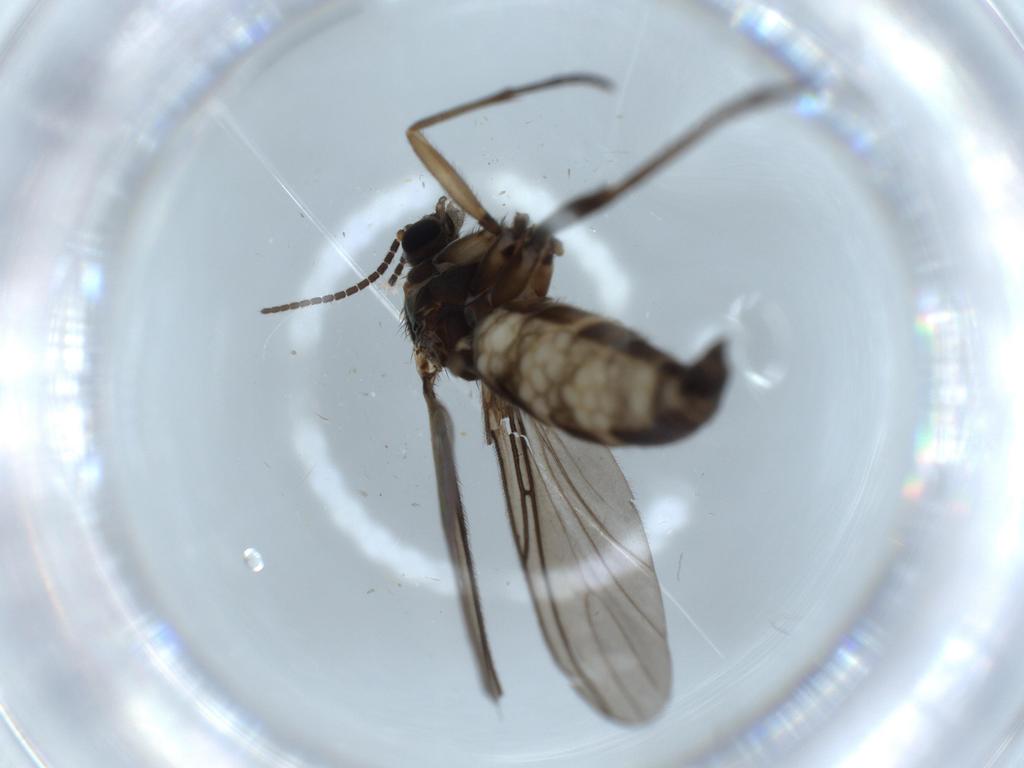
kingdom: Animalia
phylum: Arthropoda
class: Insecta
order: Diptera
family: Sciaridae
